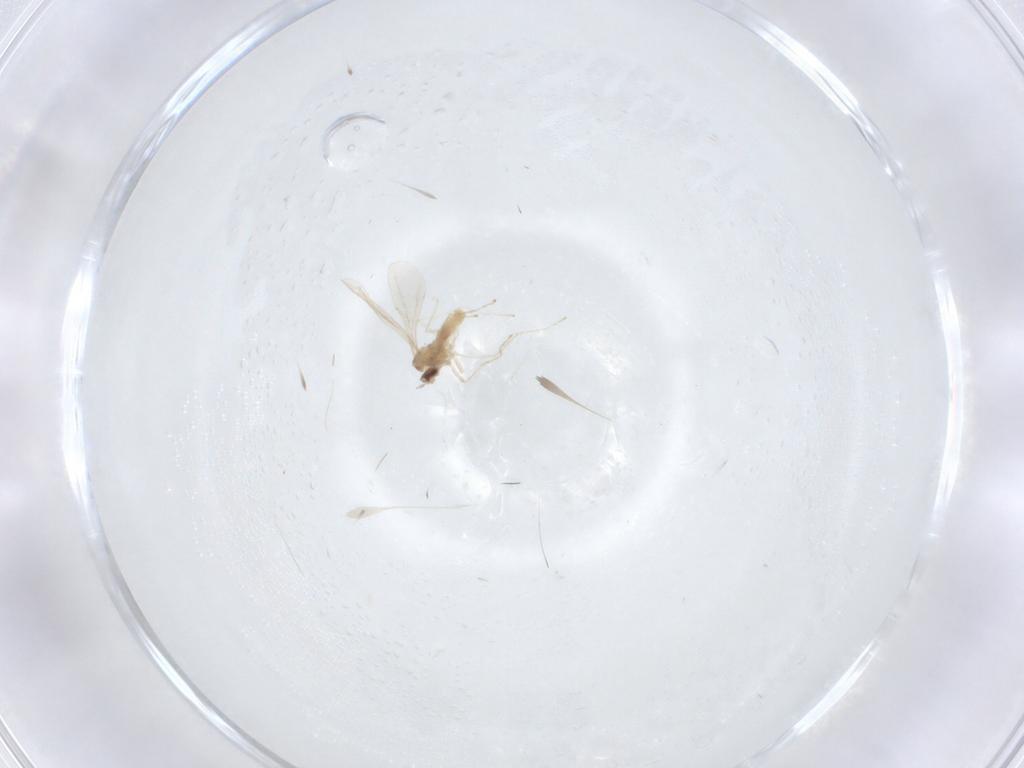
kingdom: Animalia
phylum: Arthropoda
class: Insecta
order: Diptera
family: Cecidomyiidae
